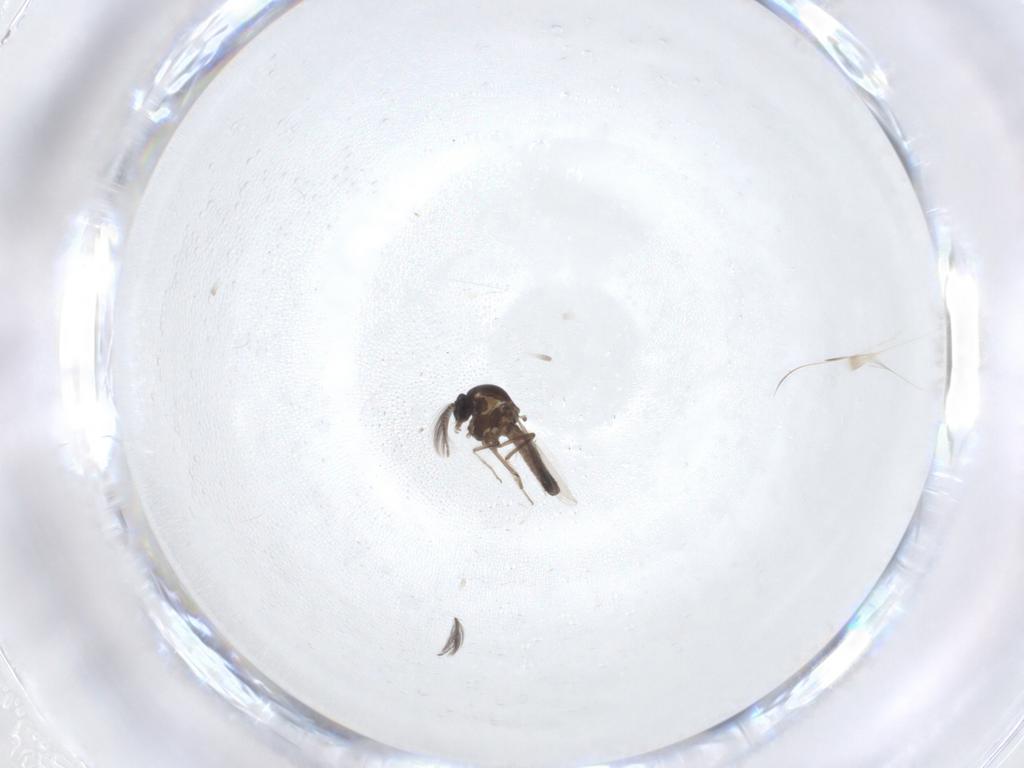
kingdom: Animalia
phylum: Arthropoda
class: Insecta
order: Diptera
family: Ceratopogonidae
